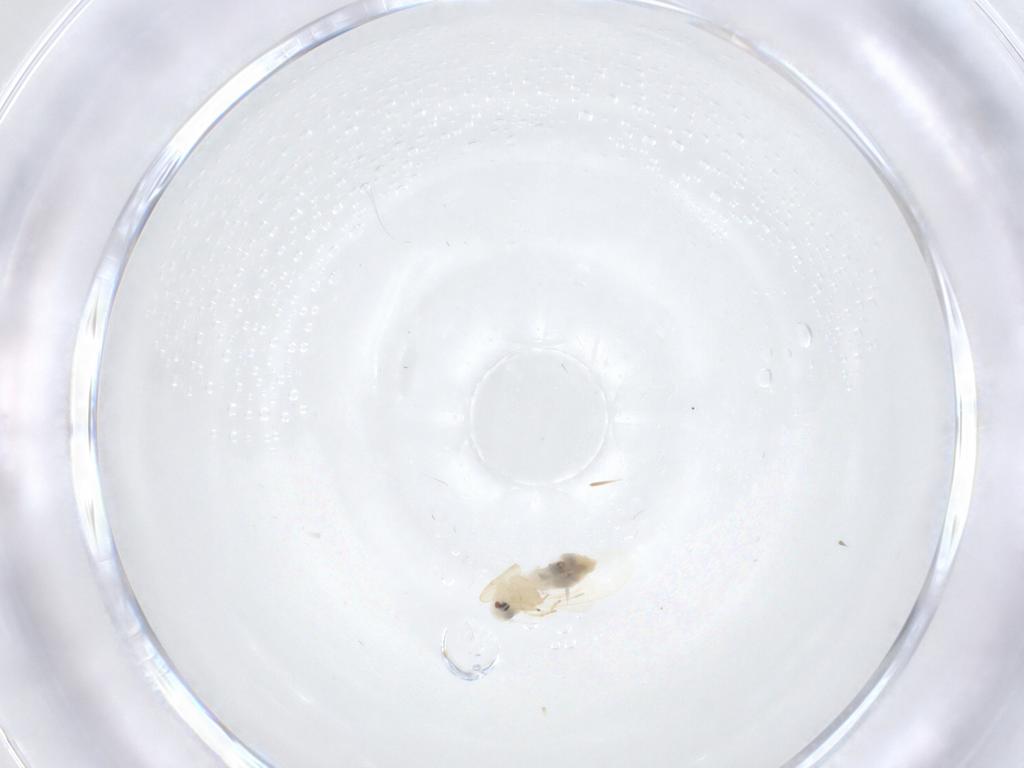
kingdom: Animalia
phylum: Arthropoda
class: Insecta
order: Hemiptera
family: Aleyrodidae
